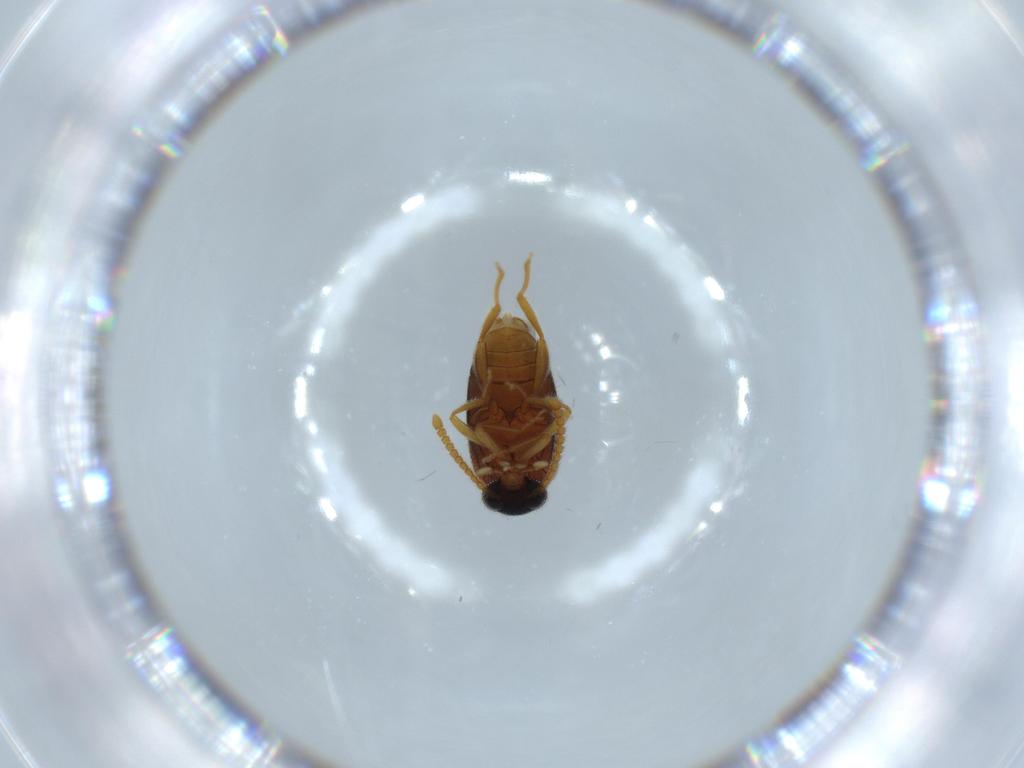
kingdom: Animalia
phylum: Arthropoda
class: Insecta
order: Coleoptera
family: Aderidae
